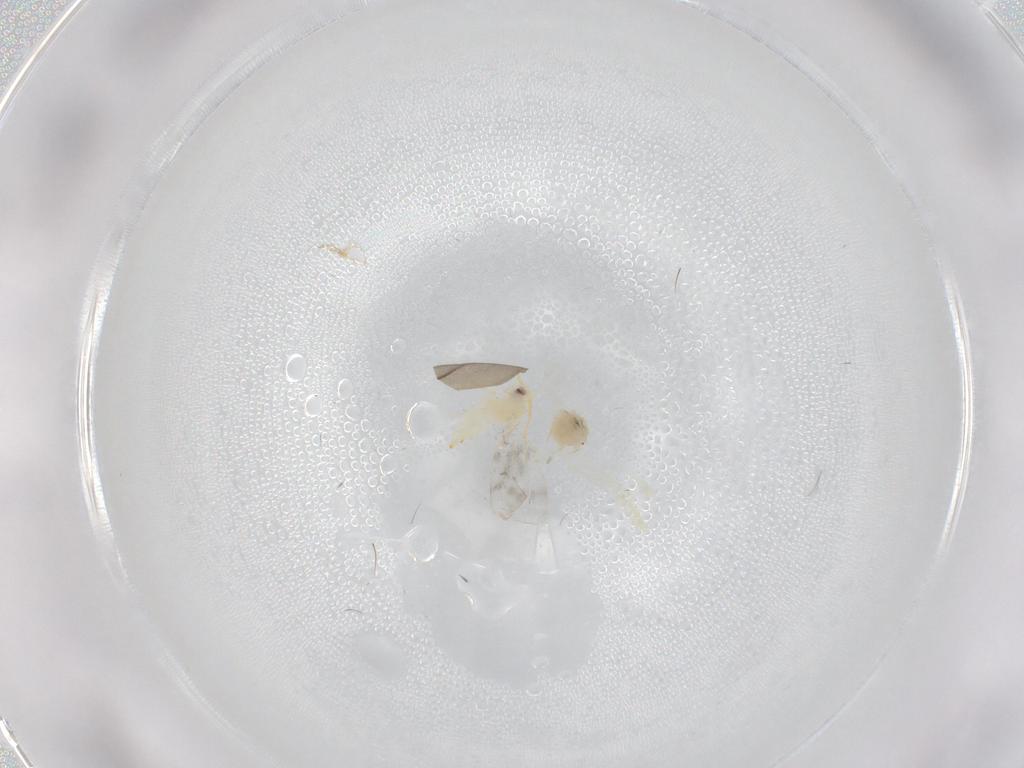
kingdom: Animalia
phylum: Arthropoda
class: Insecta
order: Hemiptera
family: Aleyrodidae
